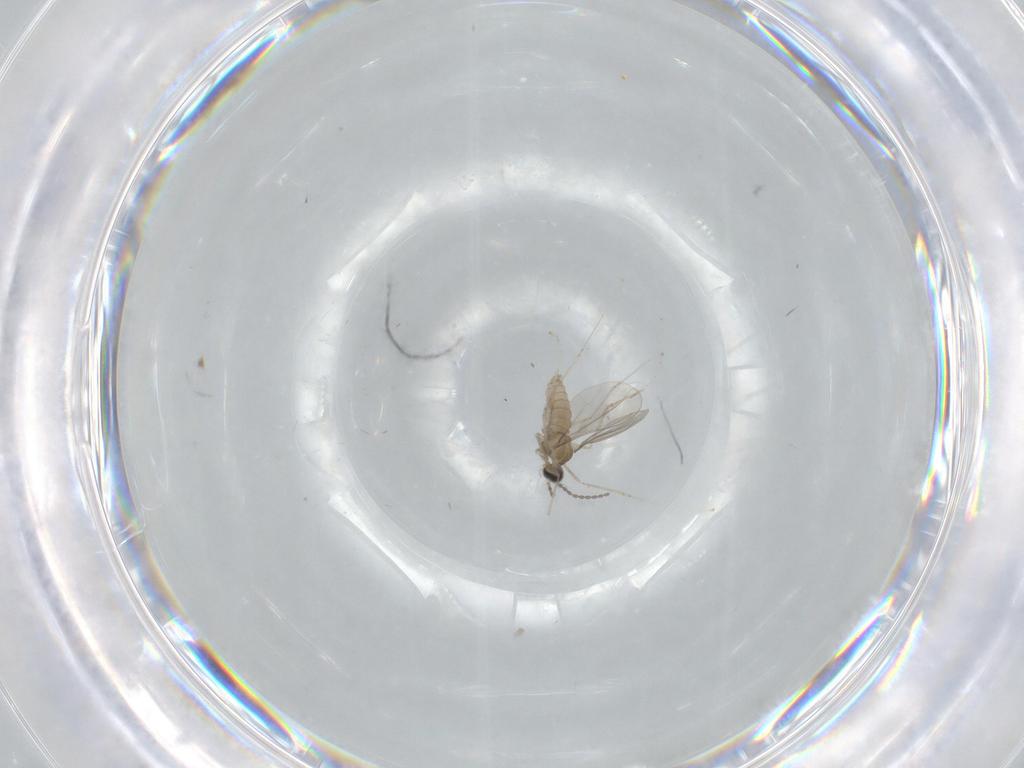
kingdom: Animalia
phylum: Arthropoda
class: Insecta
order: Diptera
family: Cecidomyiidae
